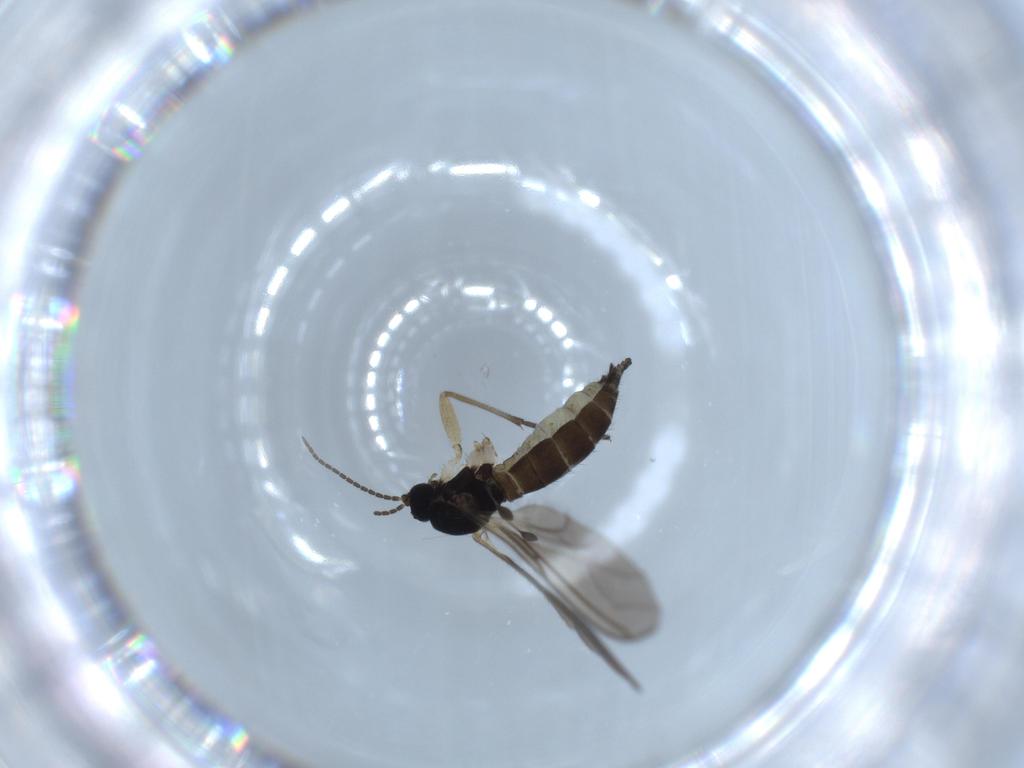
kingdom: Animalia
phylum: Arthropoda
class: Insecta
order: Diptera
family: Sciaridae
